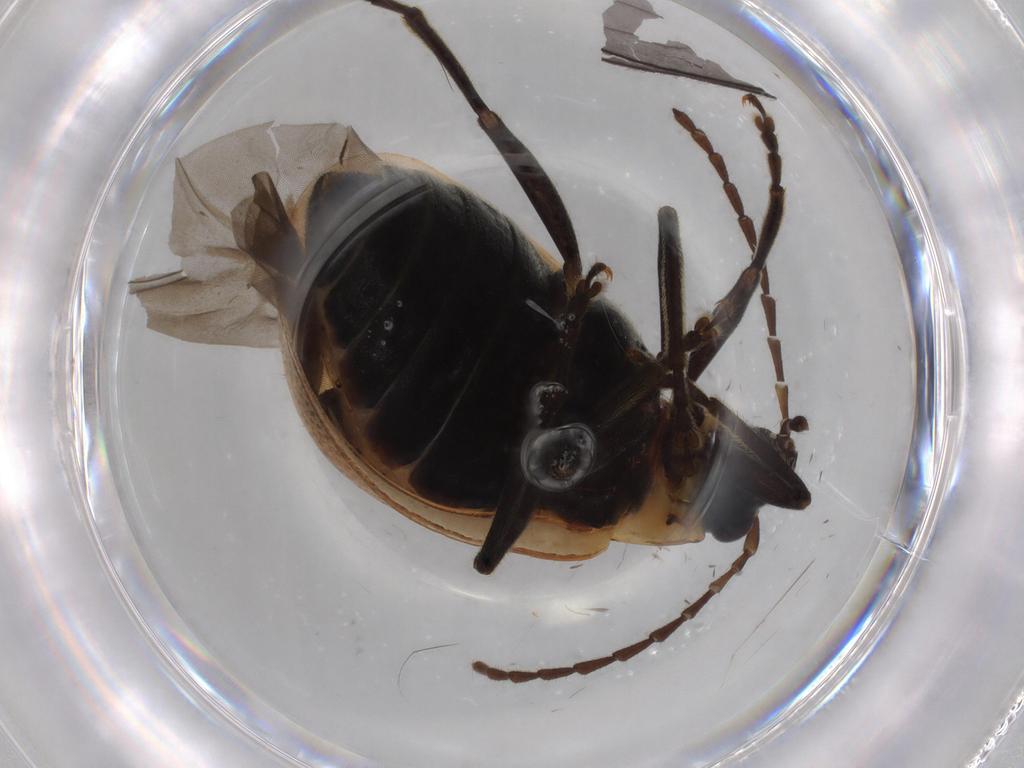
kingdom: Animalia
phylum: Arthropoda
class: Insecta
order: Coleoptera
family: Chrysomelidae
